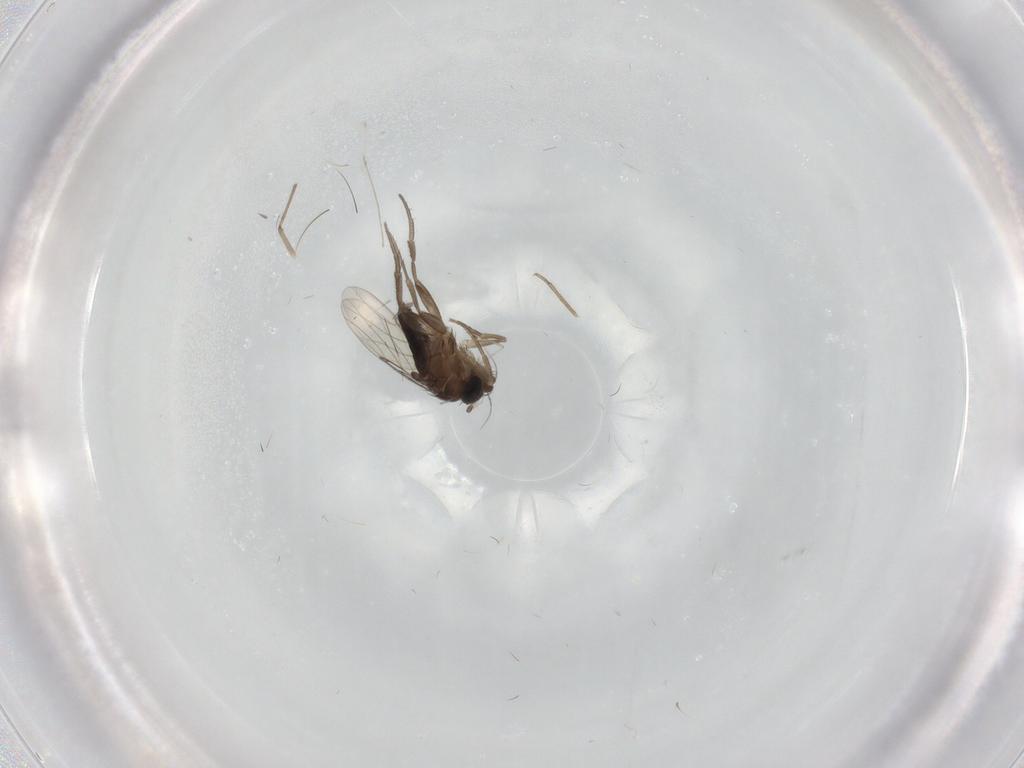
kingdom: Animalia
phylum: Arthropoda
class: Insecta
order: Diptera
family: Phoridae
